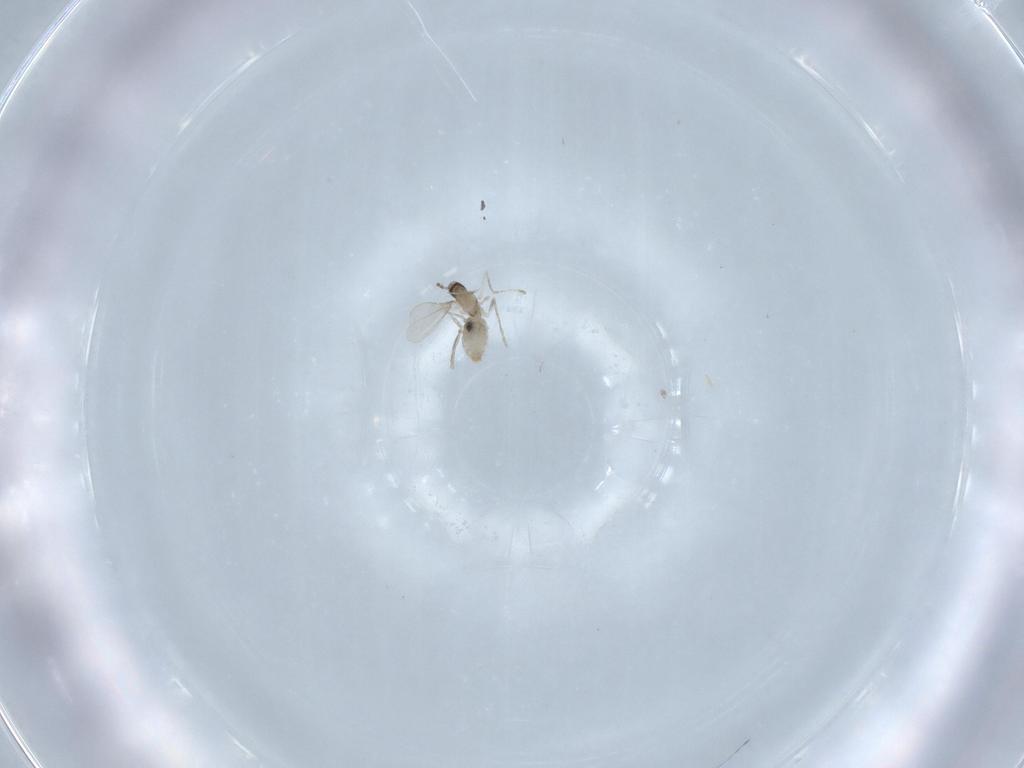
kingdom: Animalia
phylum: Arthropoda
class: Insecta
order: Diptera
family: Cecidomyiidae
